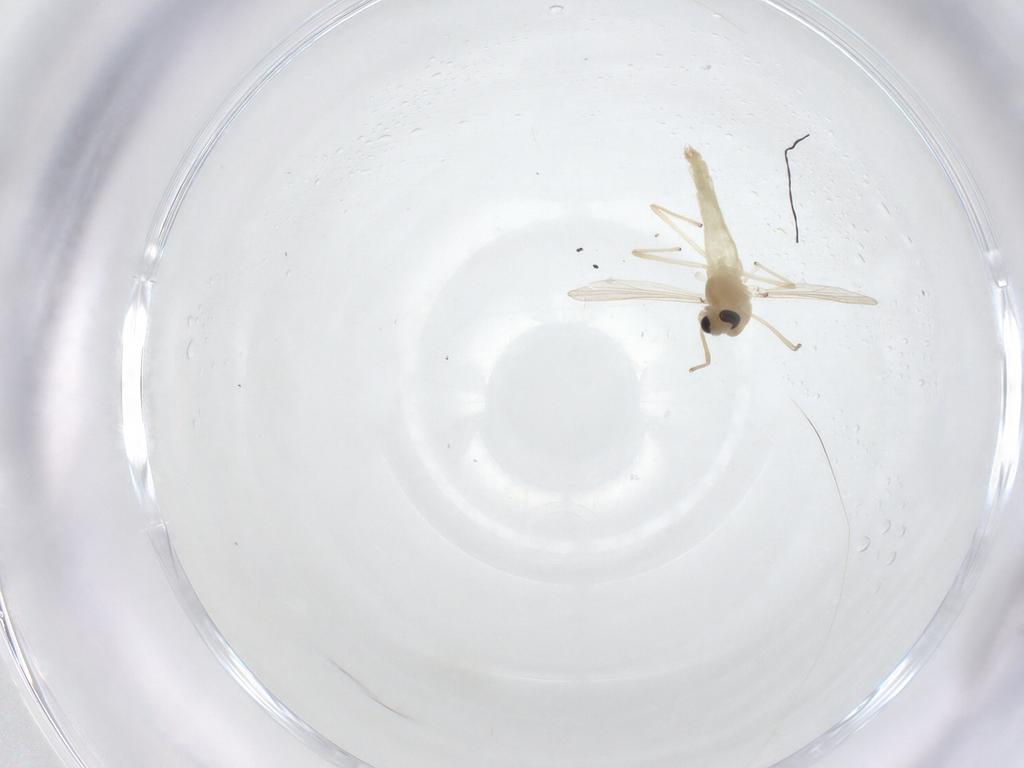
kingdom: Animalia
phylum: Arthropoda
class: Insecta
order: Diptera
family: Chironomidae
